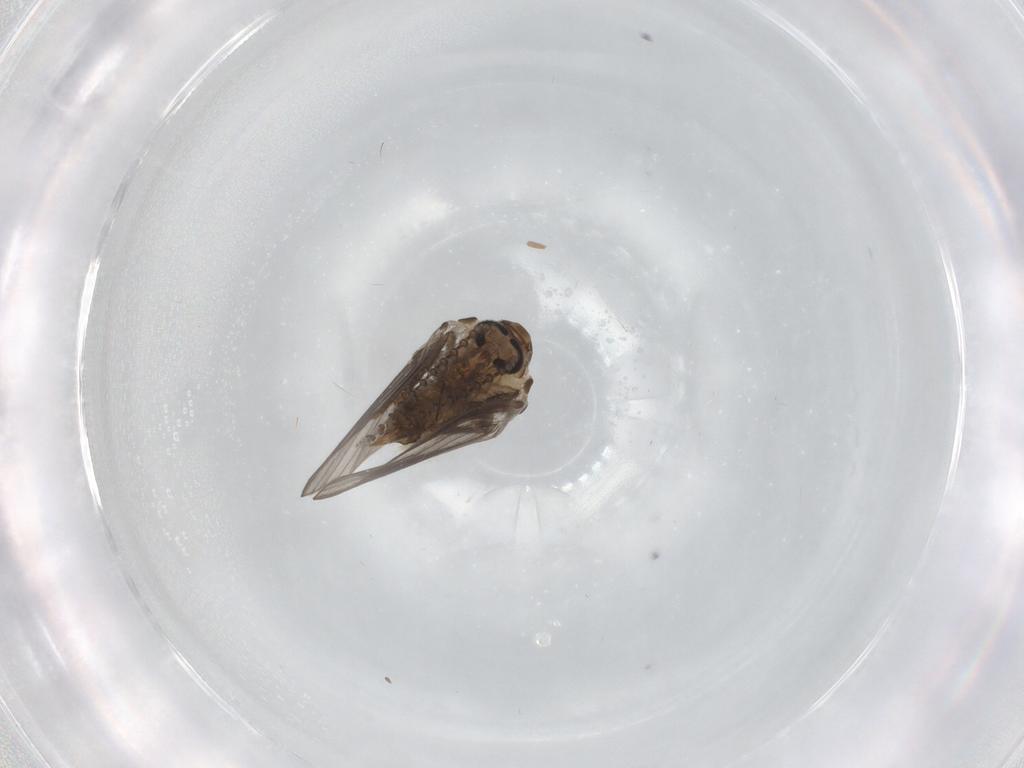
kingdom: Animalia
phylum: Arthropoda
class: Insecta
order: Diptera
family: Psychodidae
